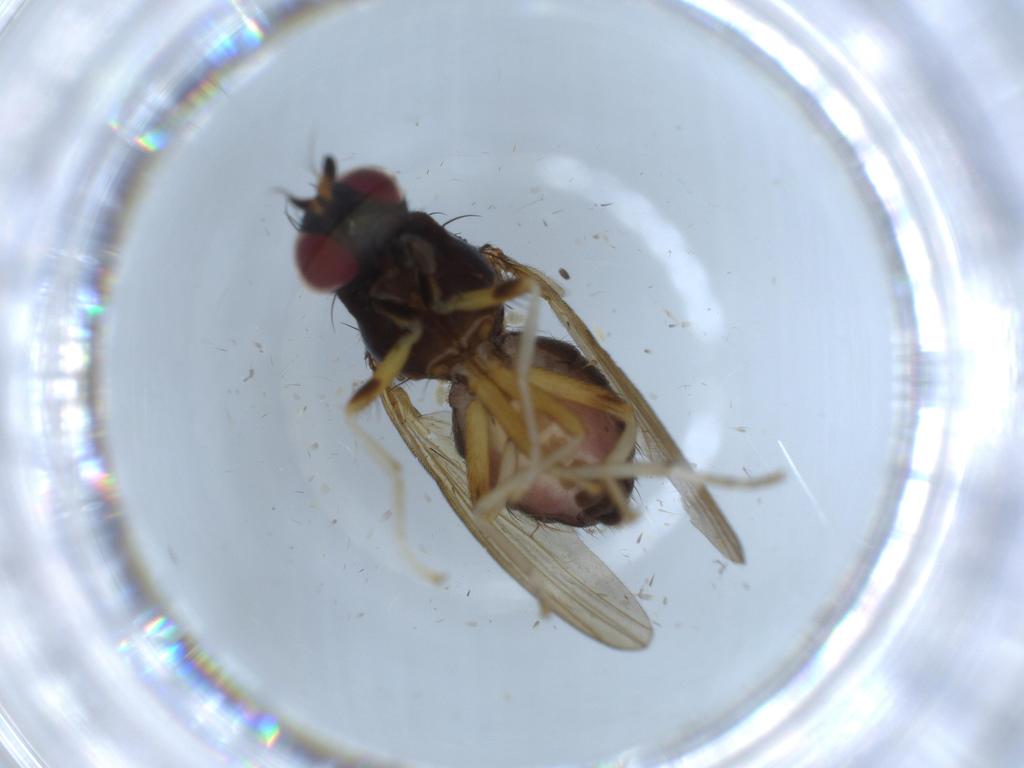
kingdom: Animalia
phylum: Arthropoda
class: Insecta
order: Diptera
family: Cecidomyiidae
